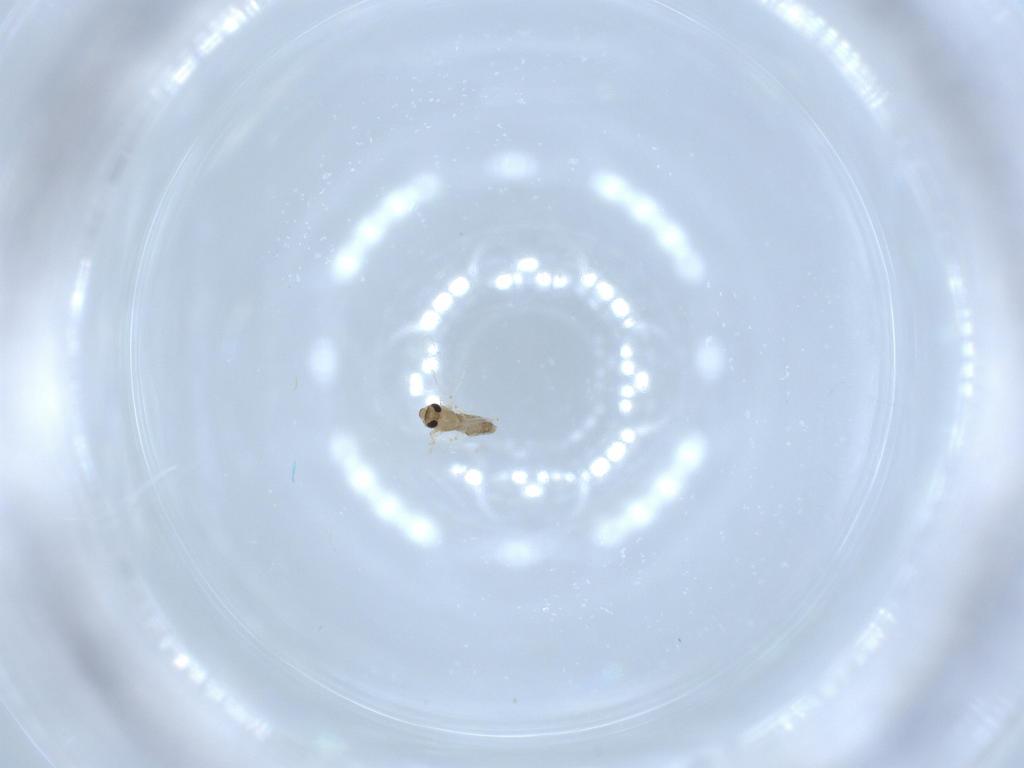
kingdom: Animalia
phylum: Arthropoda
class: Insecta
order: Diptera
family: Chironomidae
